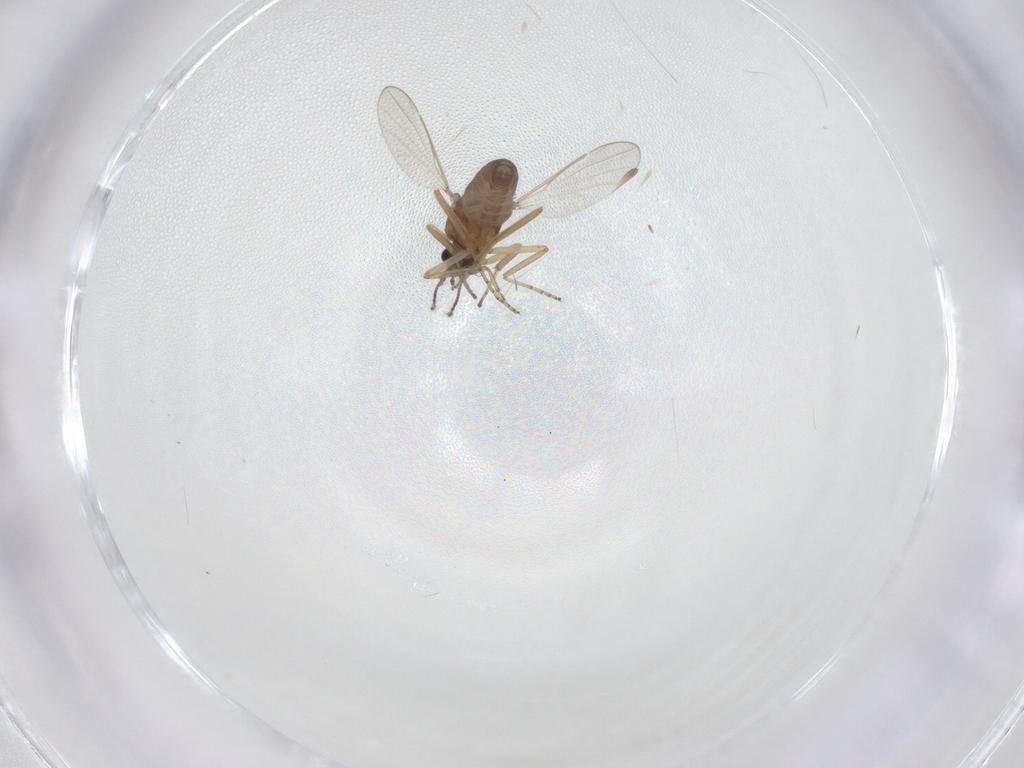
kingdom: Animalia
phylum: Arthropoda
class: Insecta
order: Diptera
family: Ceratopogonidae
